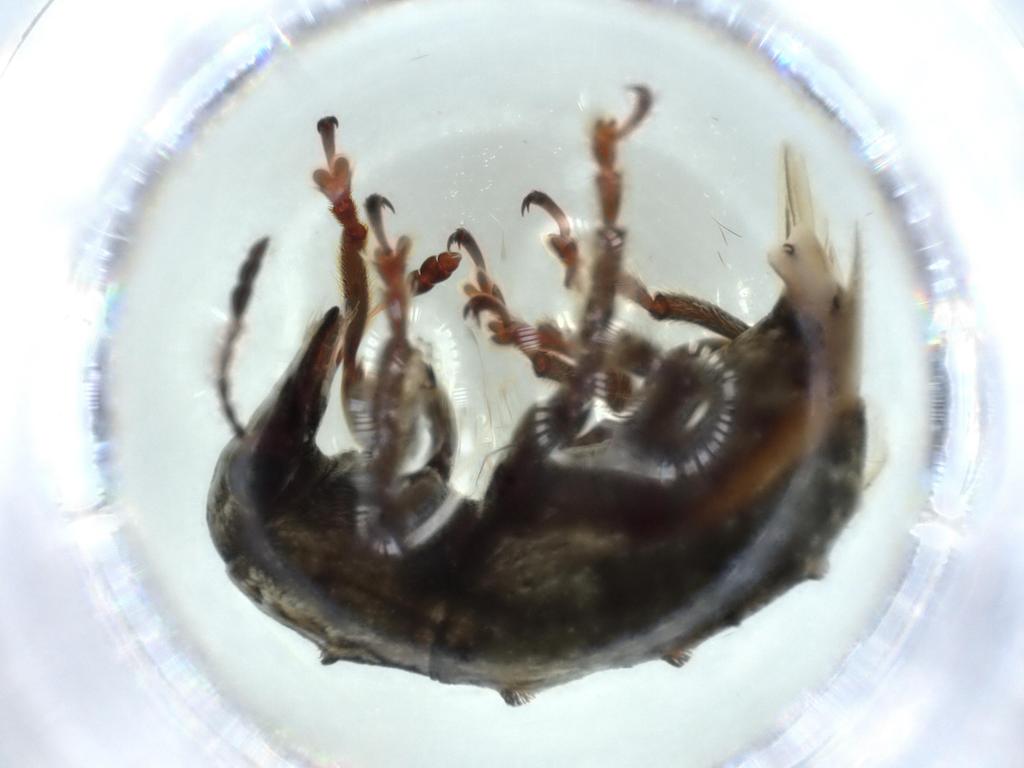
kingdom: Animalia
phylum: Arthropoda
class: Insecta
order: Coleoptera
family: Anthribidae
